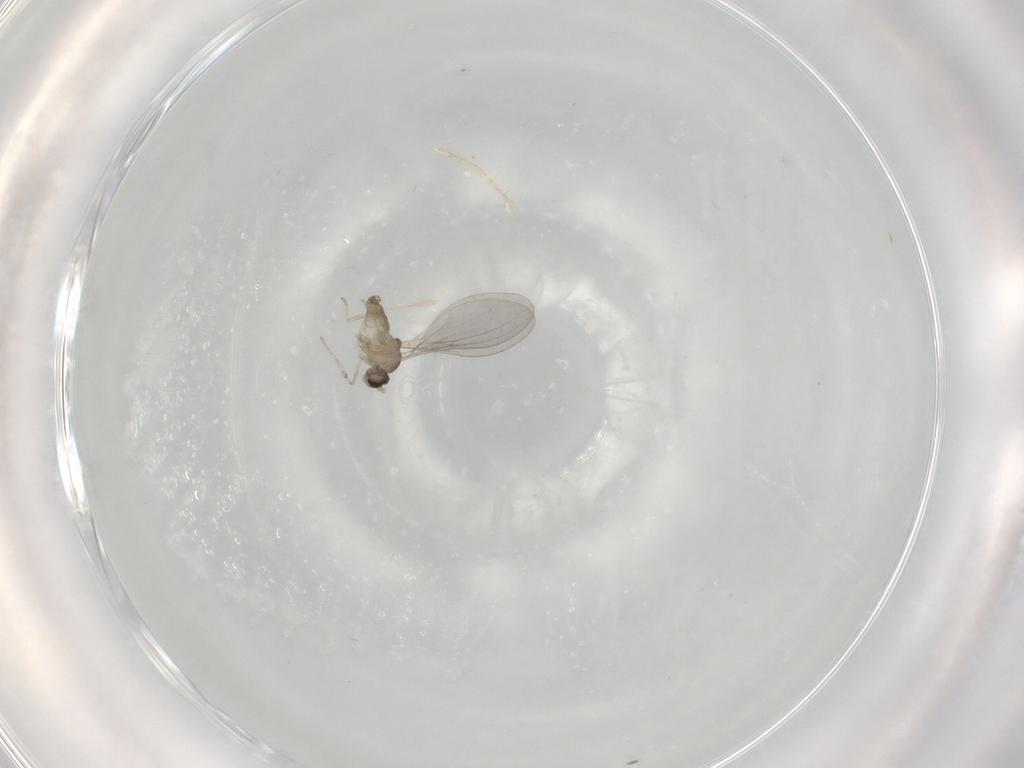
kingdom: Animalia
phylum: Arthropoda
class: Insecta
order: Diptera
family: Cecidomyiidae
